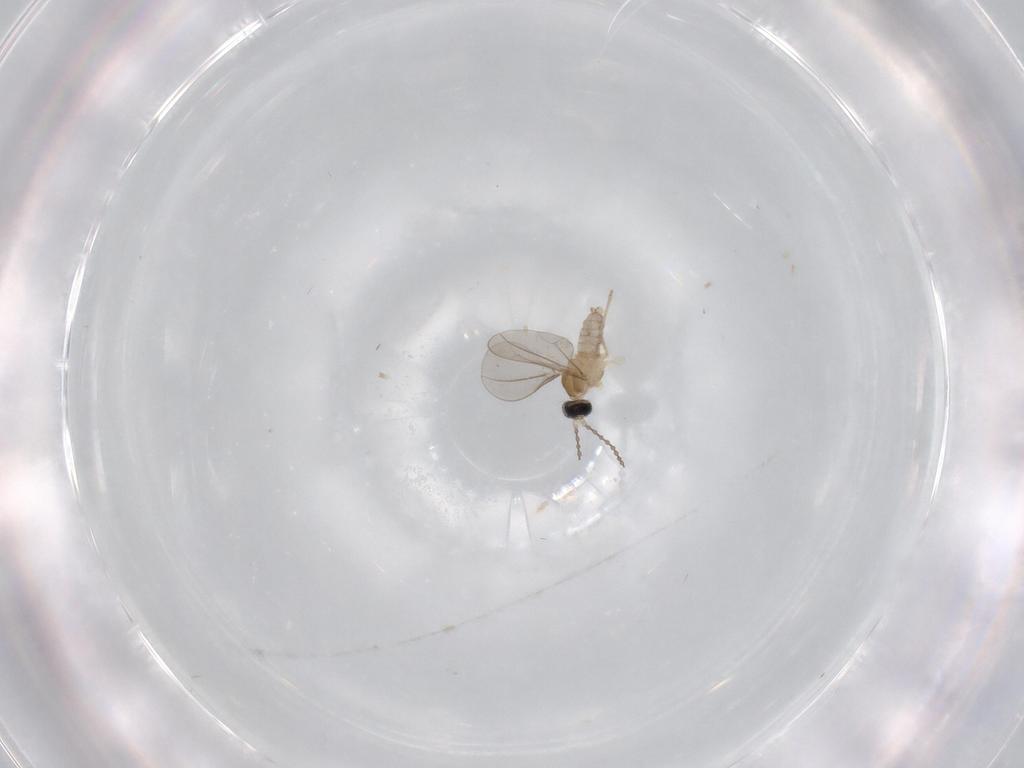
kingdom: Animalia
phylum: Arthropoda
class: Insecta
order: Diptera
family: Cecidomyiidae
